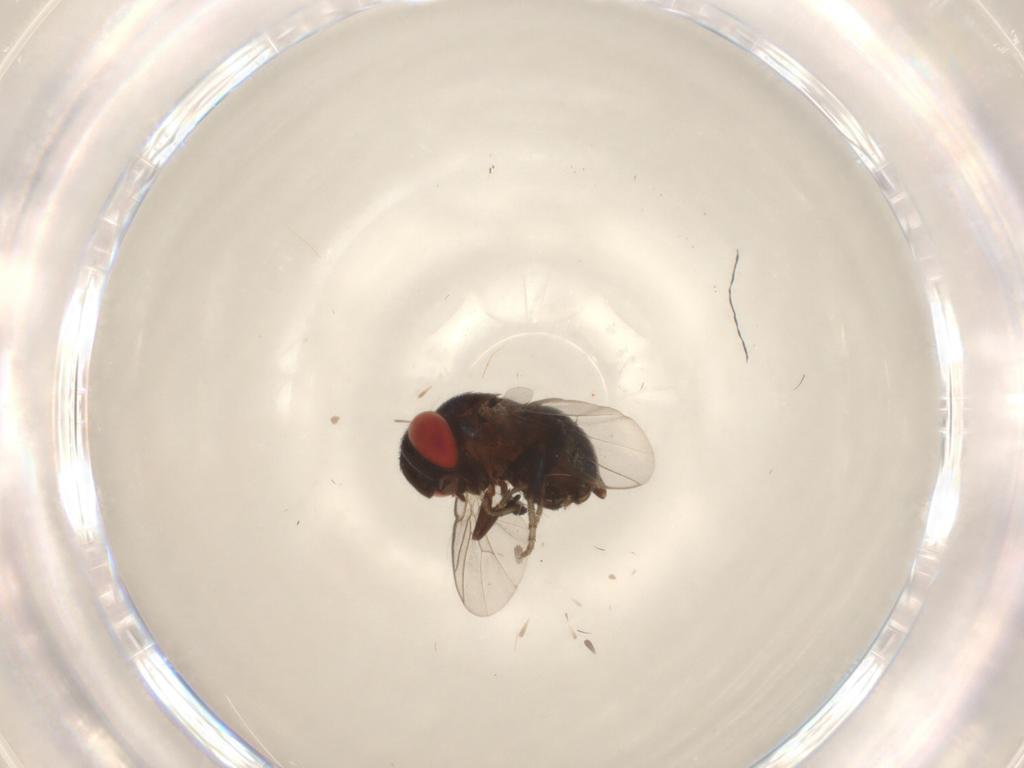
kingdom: Animalia
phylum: Arthropoda
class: Insecta
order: Diptera
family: Cryptochetidae
